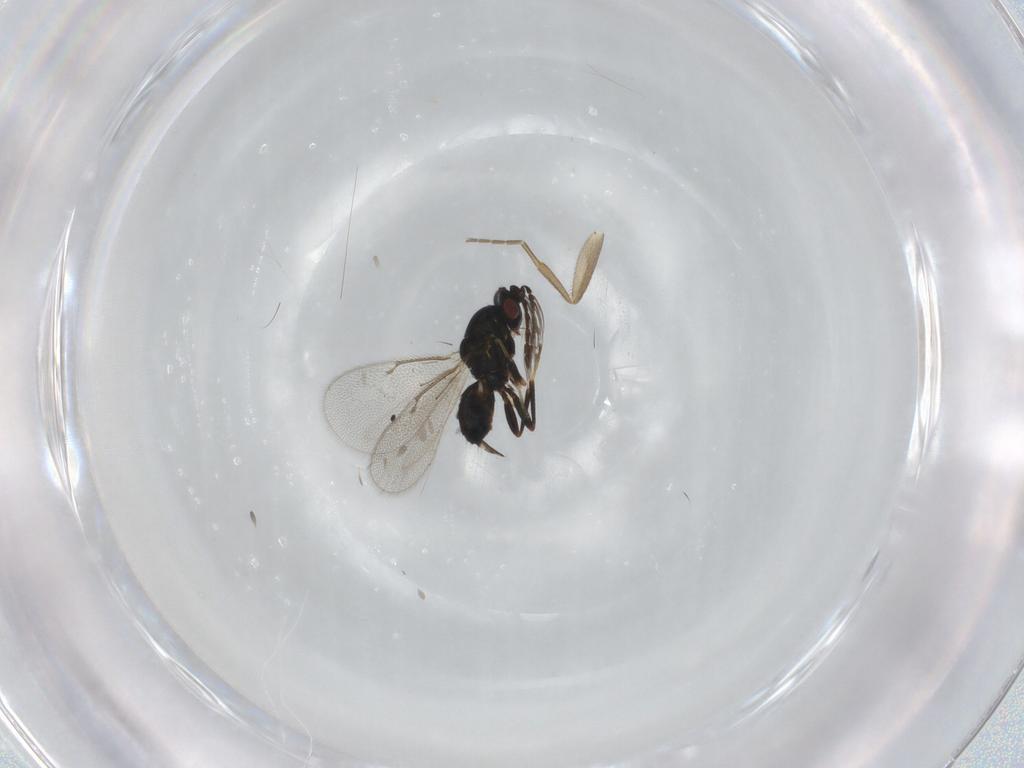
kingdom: Animalia
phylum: Arthropoda
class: Insecta
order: Hymenoptera
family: Eulophidae
